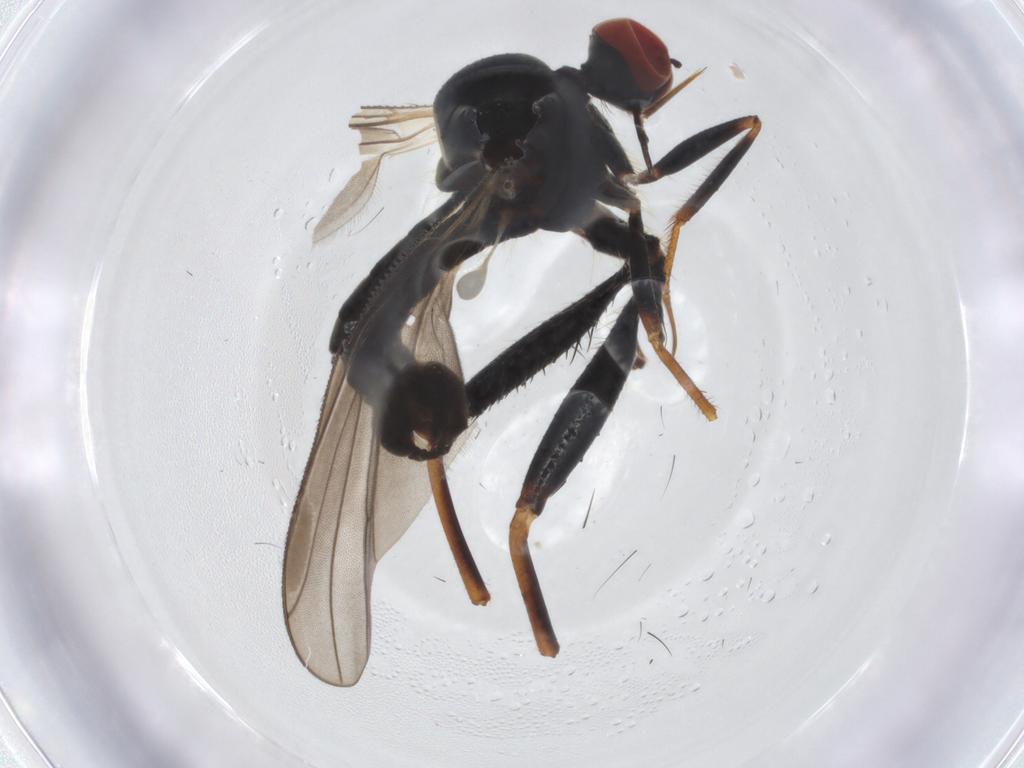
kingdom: Animalia
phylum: Arthropoda
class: Insecta
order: Diptera
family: Hybotidae
